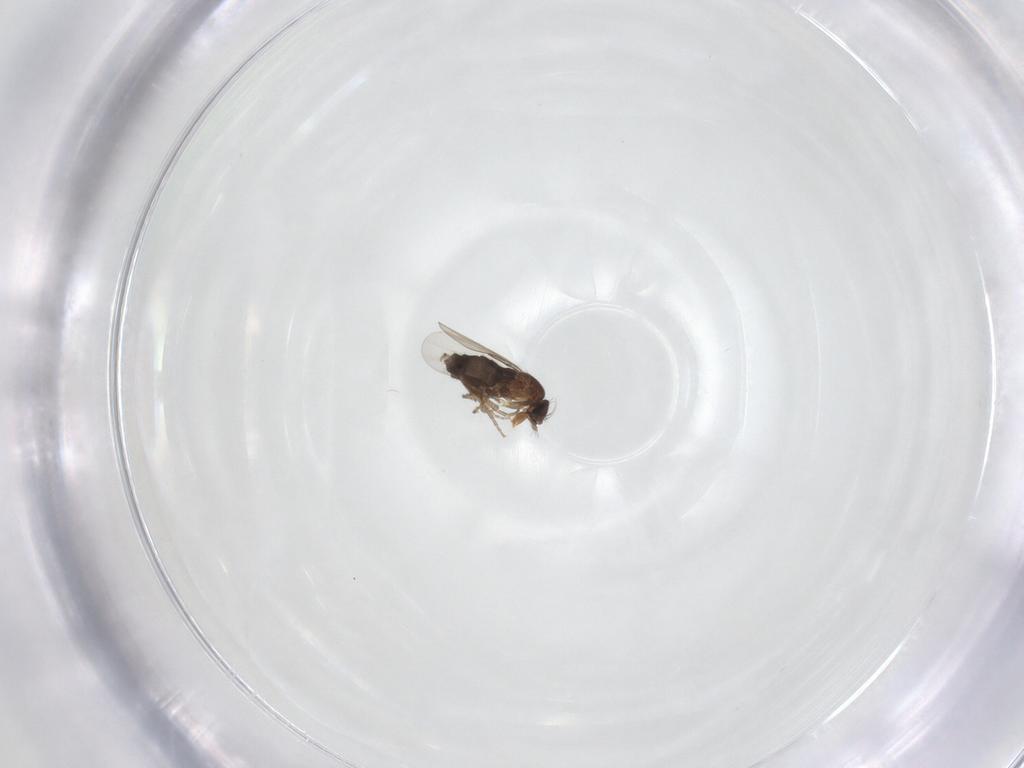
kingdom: Animalia
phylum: Arthropoda
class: Insecta
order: Diptera
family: Phoridae
